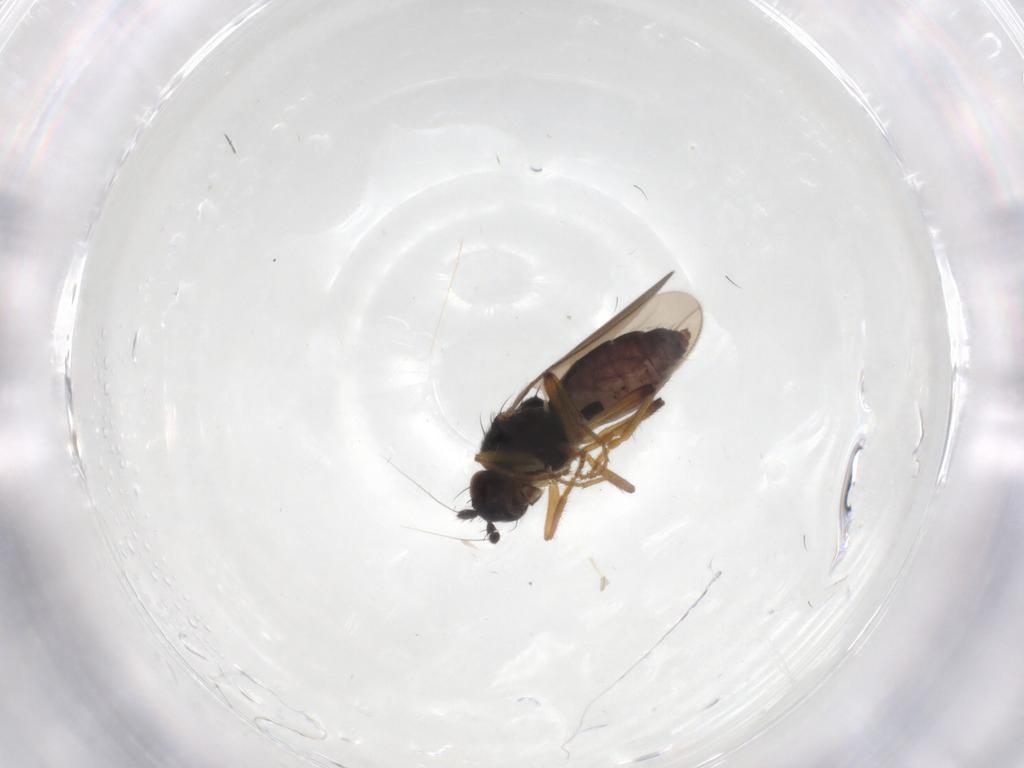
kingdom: Animalia
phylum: Arthropoda
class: Insecta
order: Diptera
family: Sphaeroceridae
